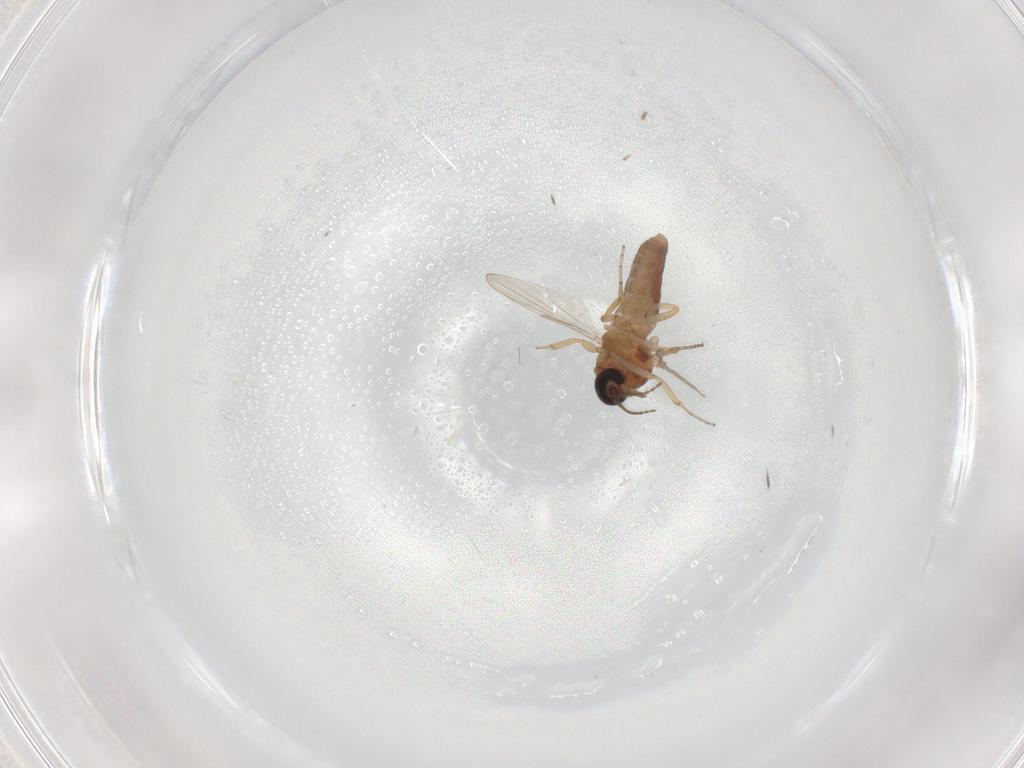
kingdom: Animalia
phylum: Arthropoda
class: Insecta
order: Diptera
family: Ceratopogonidae
